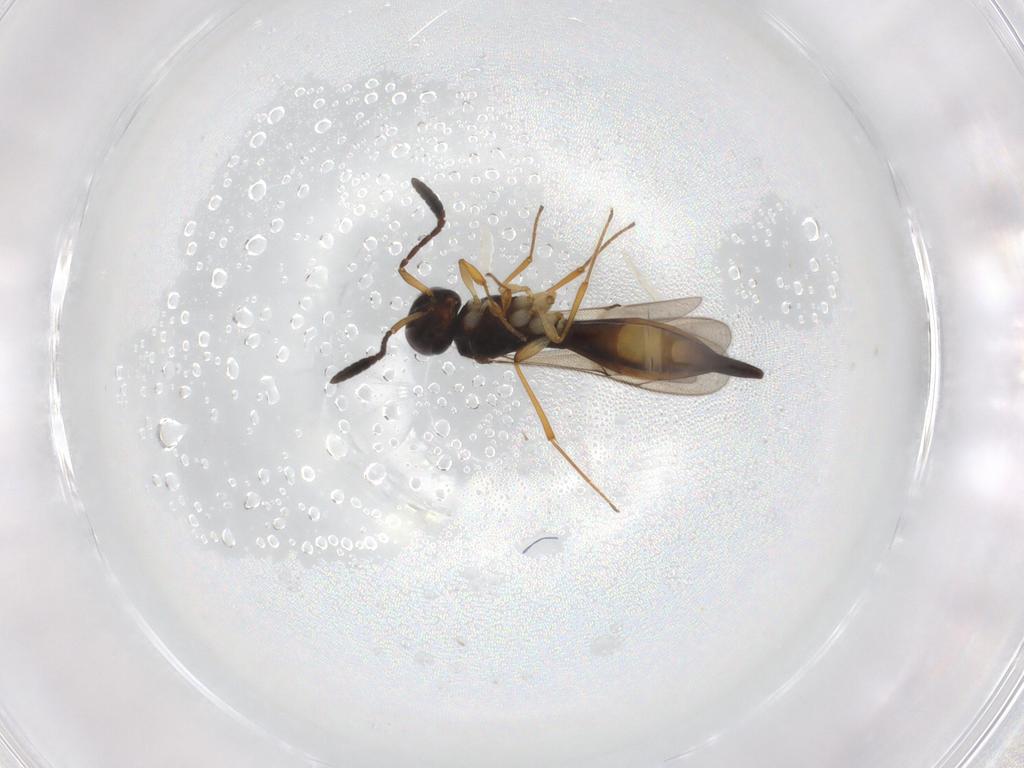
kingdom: Animalia
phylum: Arthropoda
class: Insecta
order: Hymenoptera
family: Scelionidae
